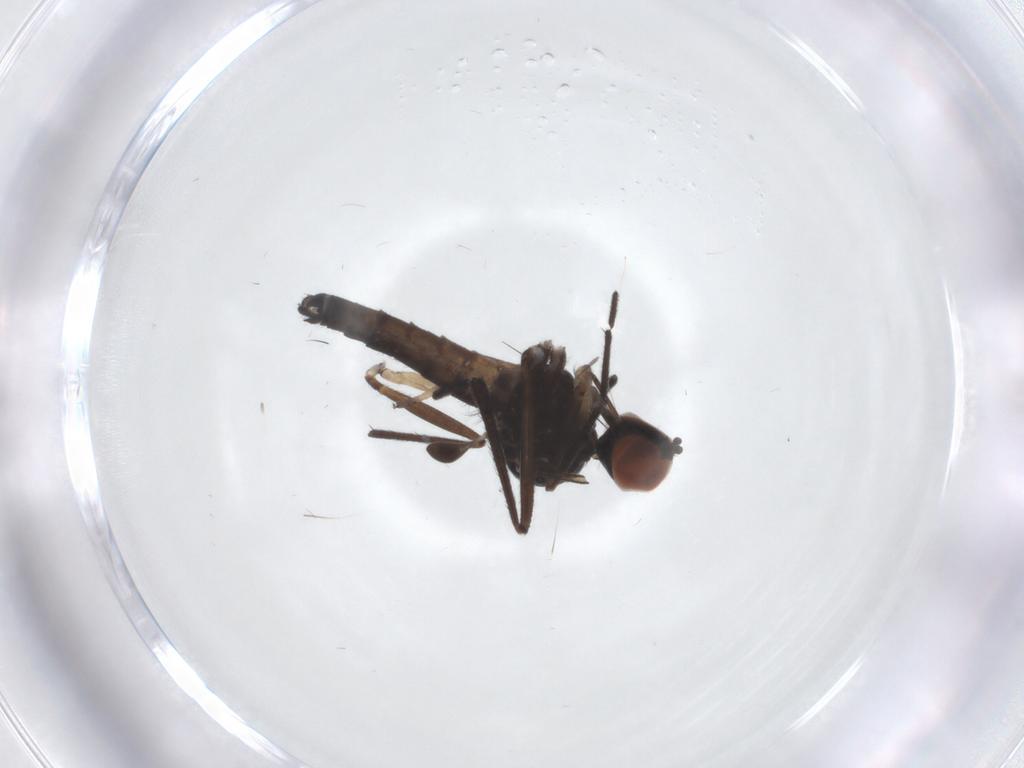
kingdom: Animalia
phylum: Arthropoda
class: Insecta
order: Diptera
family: Empididae
